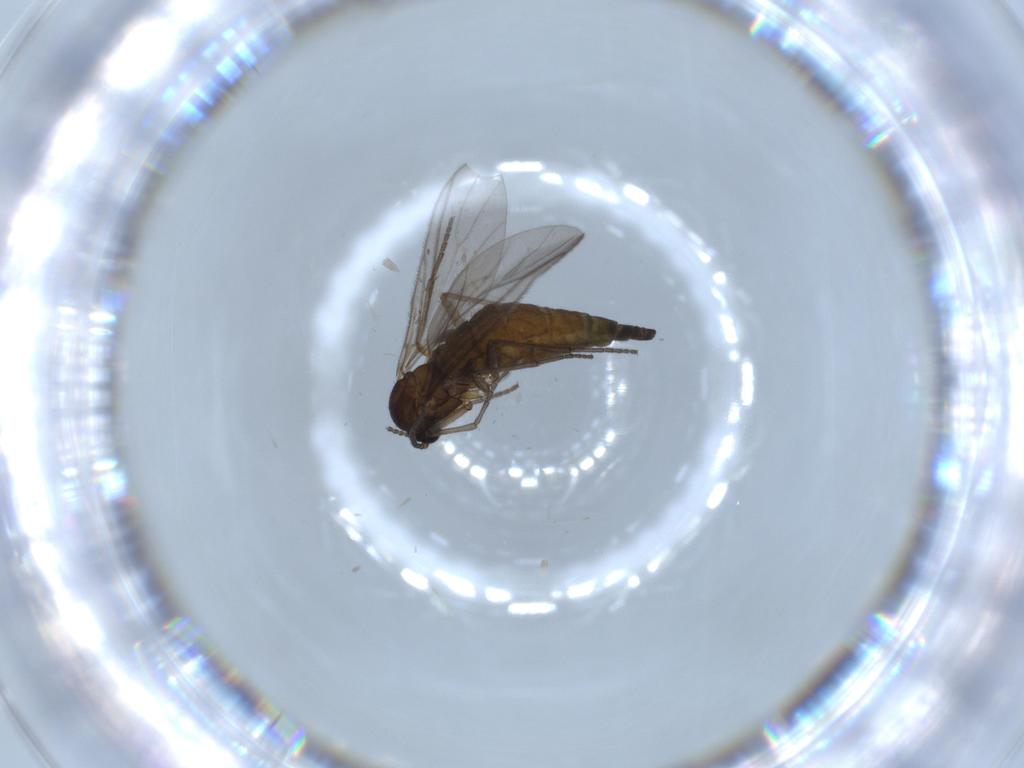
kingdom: Animalia
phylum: Arthropoda
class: Insecta
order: Diptera
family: Sciaridae
